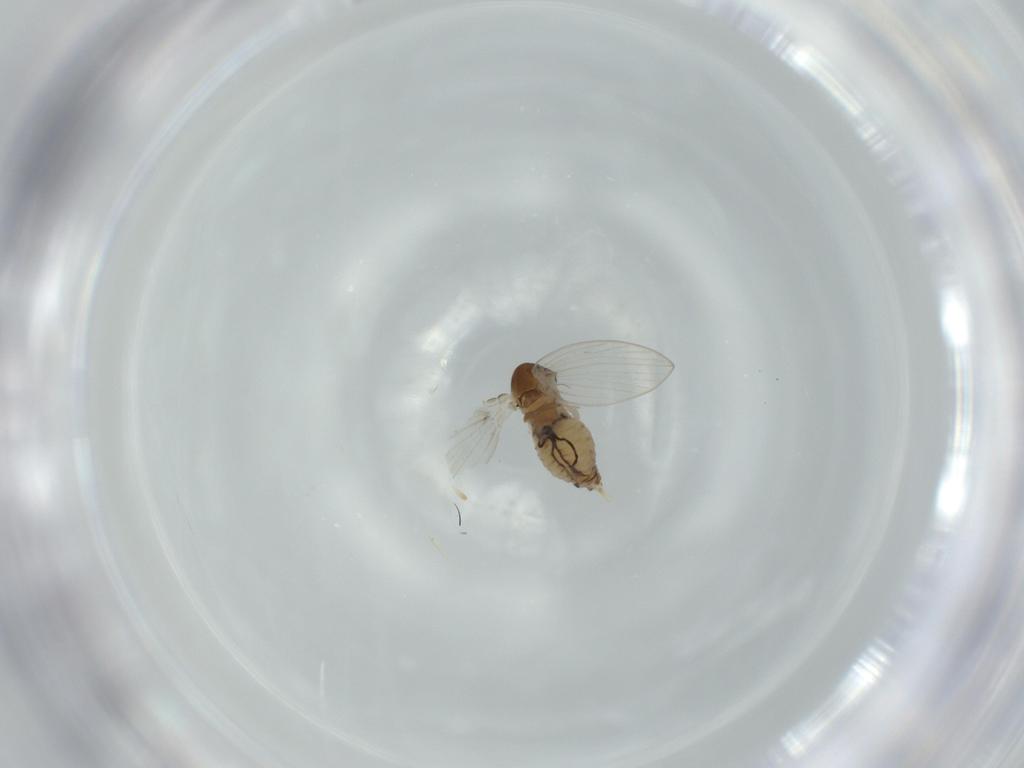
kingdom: Animalia
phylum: Arthropoda
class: Insecta
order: Diptera
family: Psychodidae
